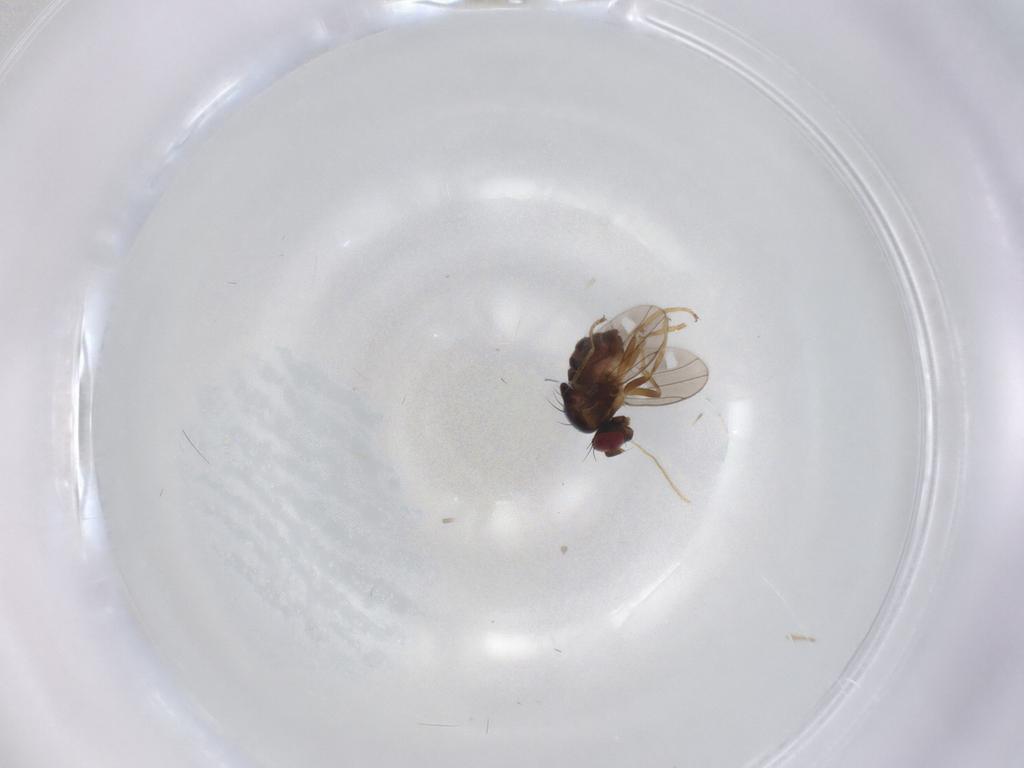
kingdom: Animalia
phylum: Arthropoda
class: Insecta
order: Diptera
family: Ephydridae
